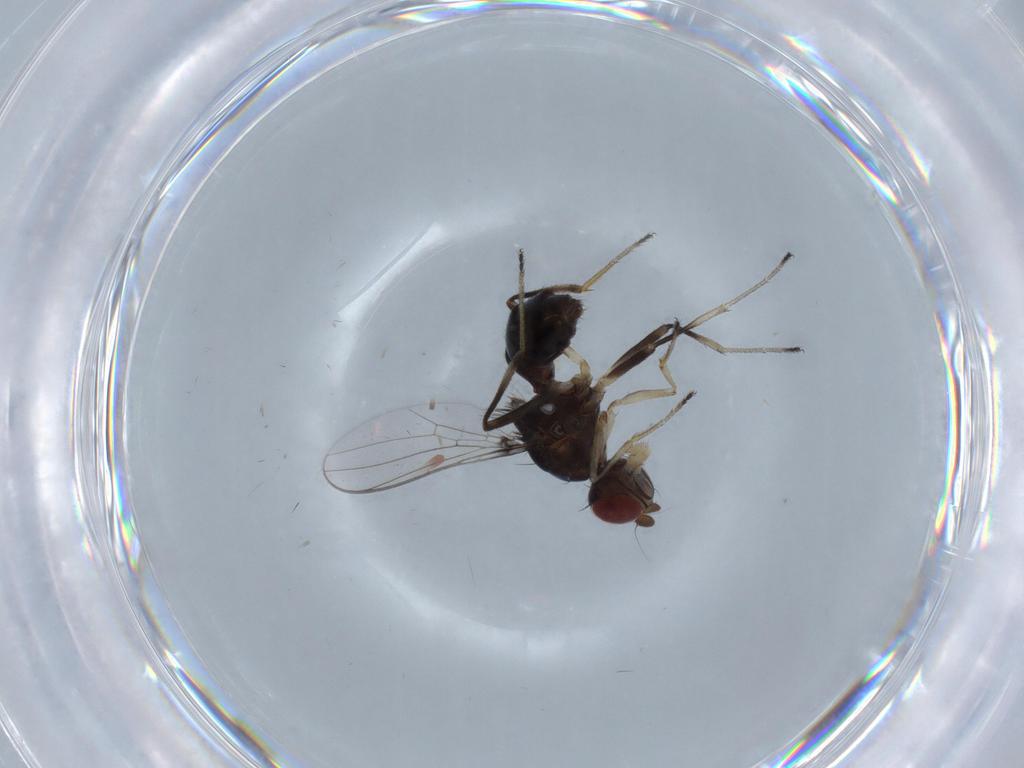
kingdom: Animalia
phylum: Arthropoda
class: Insecta
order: Diptera
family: Sepsidae
